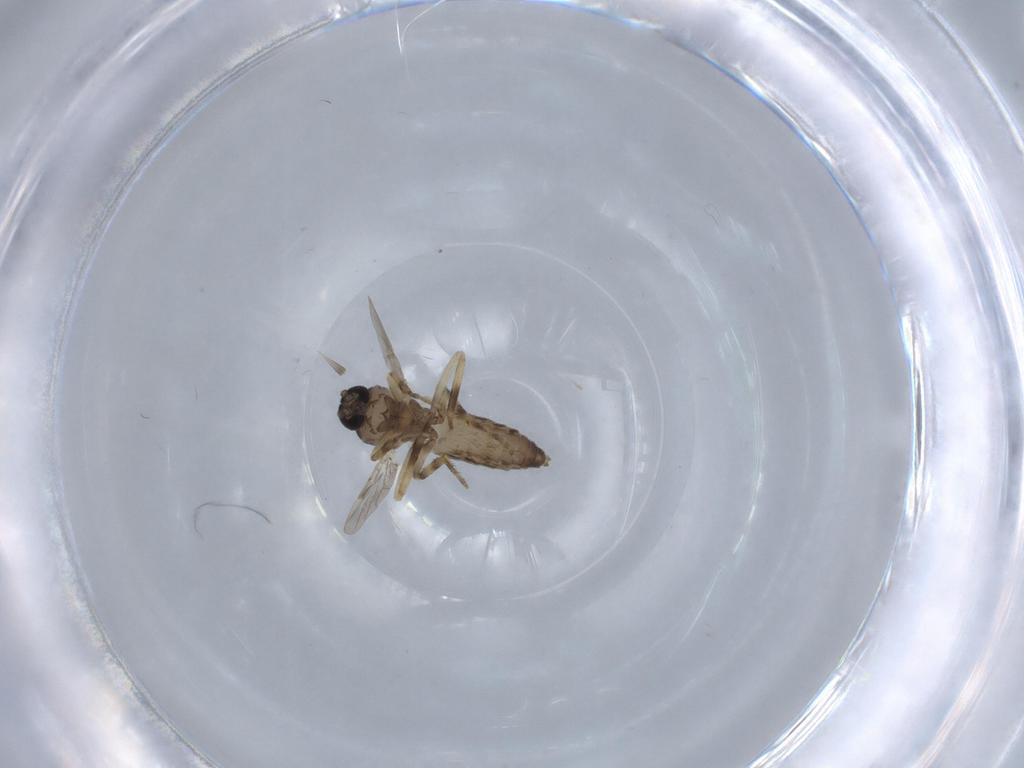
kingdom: Animalia
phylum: Arthropoda
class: Insecta
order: Diptera
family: Ceratopogonidae
